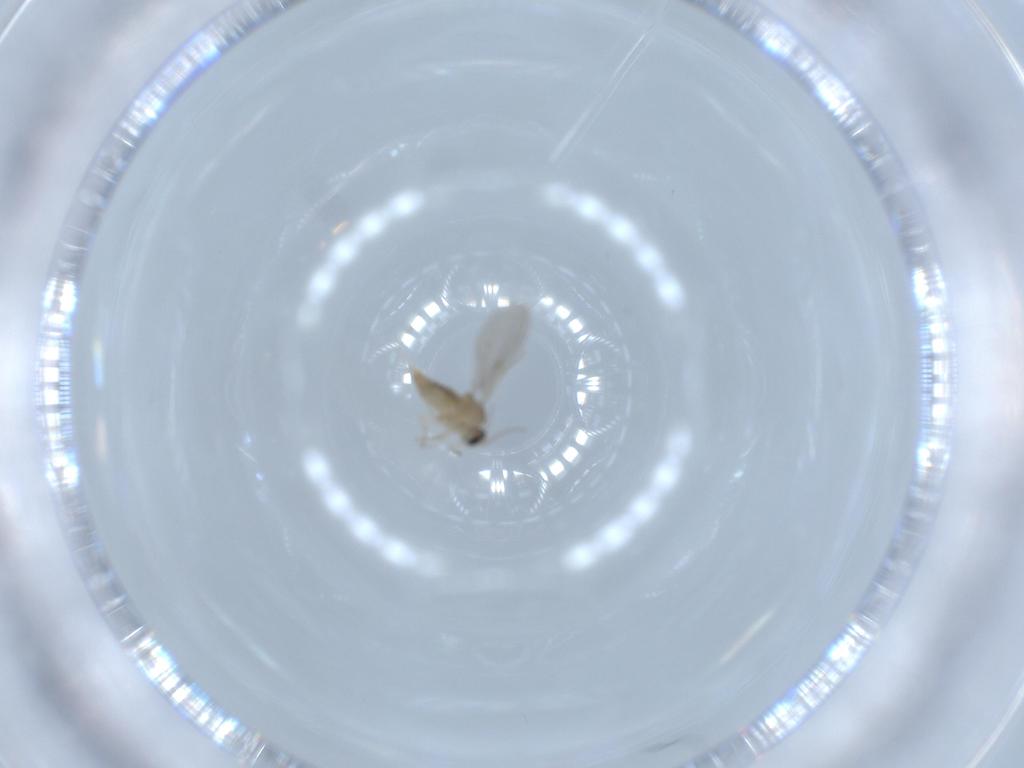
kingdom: Animalia
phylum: Arthropoda
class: Insecta
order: Diptera
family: Cecidomyiidae
